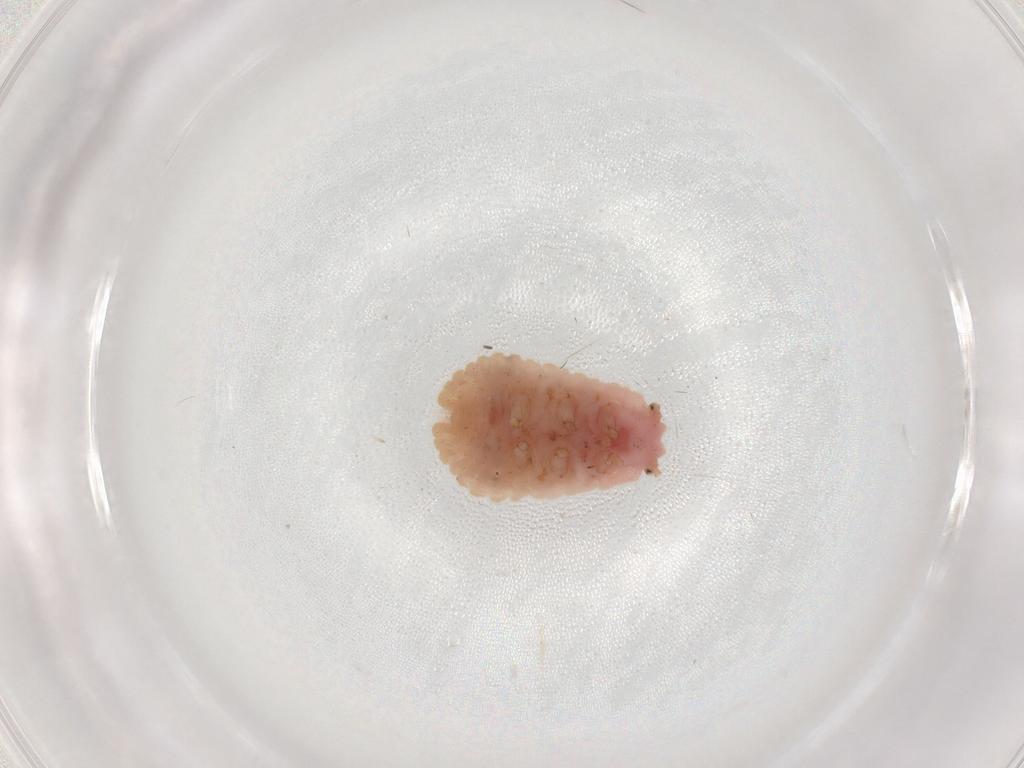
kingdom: Animalia
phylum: Arthropoda
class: Insecta
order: Hemiptera
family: Coccoidea_incertae_sedis
